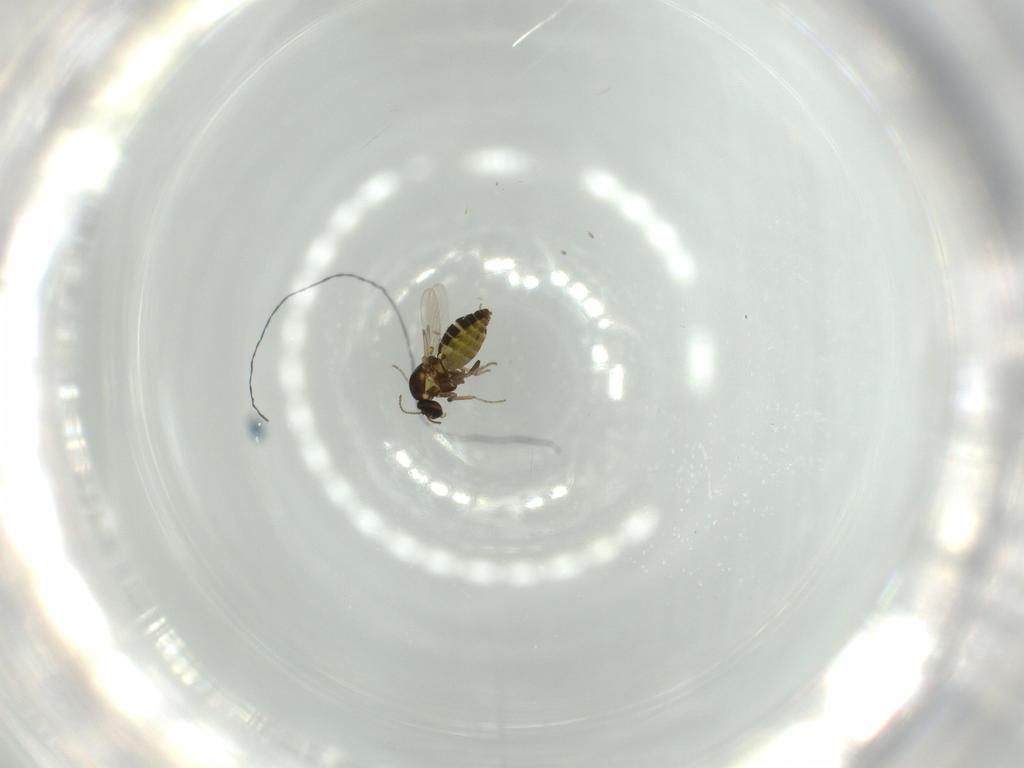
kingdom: Animalia
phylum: Arthropoda
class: Insecta
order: Diptera
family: Ceratopogonidae
